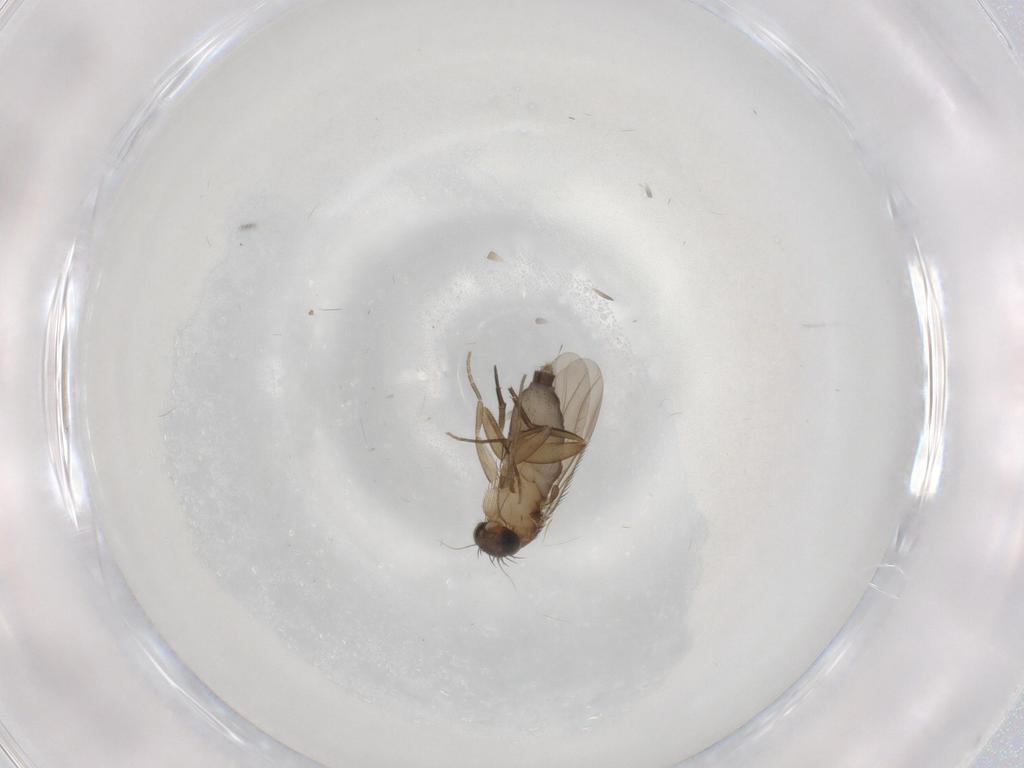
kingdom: Animalia
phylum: Arthropoda
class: Insecta
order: Diptera
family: Phoridae
